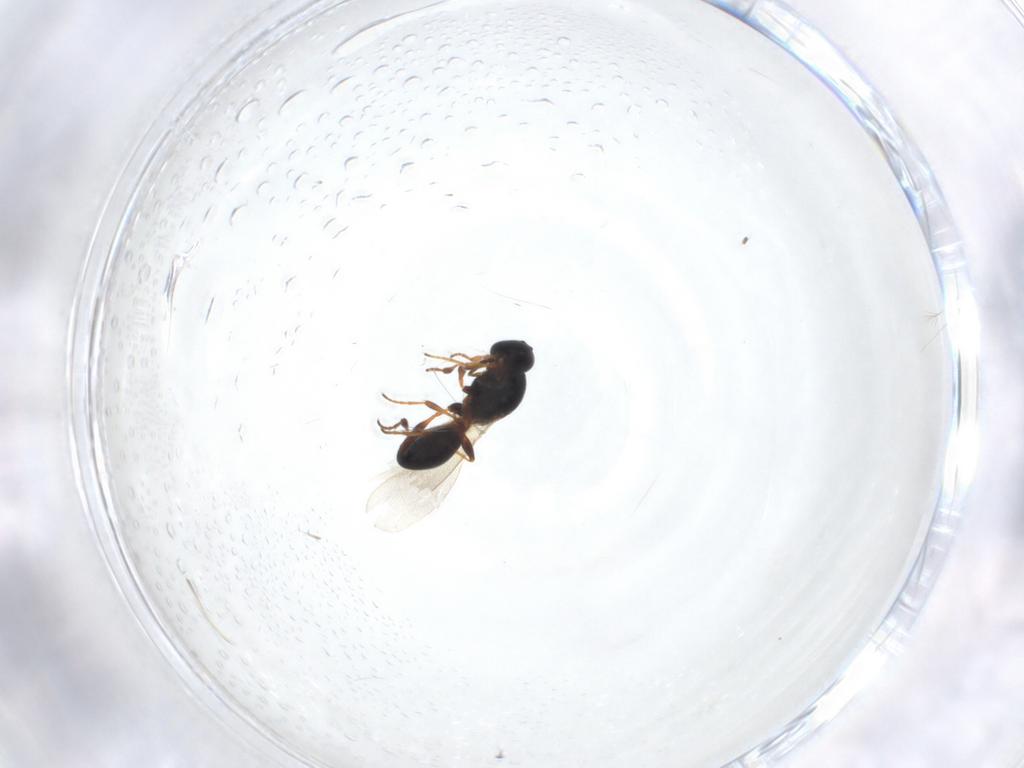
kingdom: Animalia
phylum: Arthropoda
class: Insecta
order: Hymenoptera
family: Platygastridae
